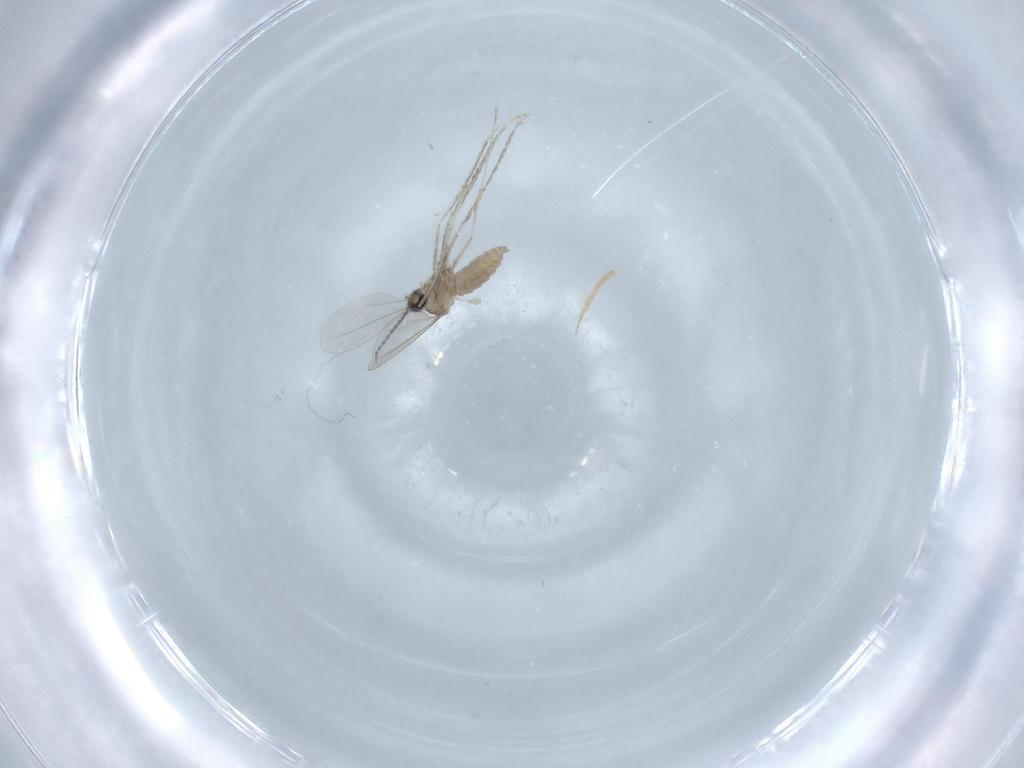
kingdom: Animalia
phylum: Arthropoda
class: Insecta
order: Diptera
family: Cecidomyiidae
